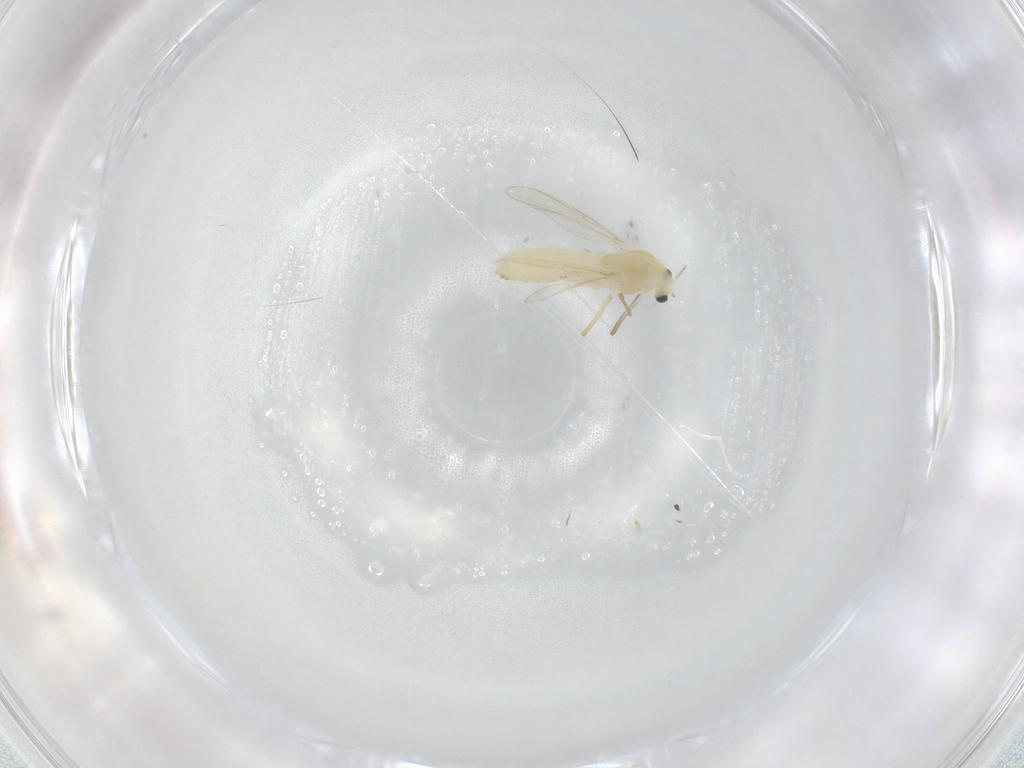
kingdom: Animalia
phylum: Arthropoda
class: Insecta
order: Diptera
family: Chironomidae
